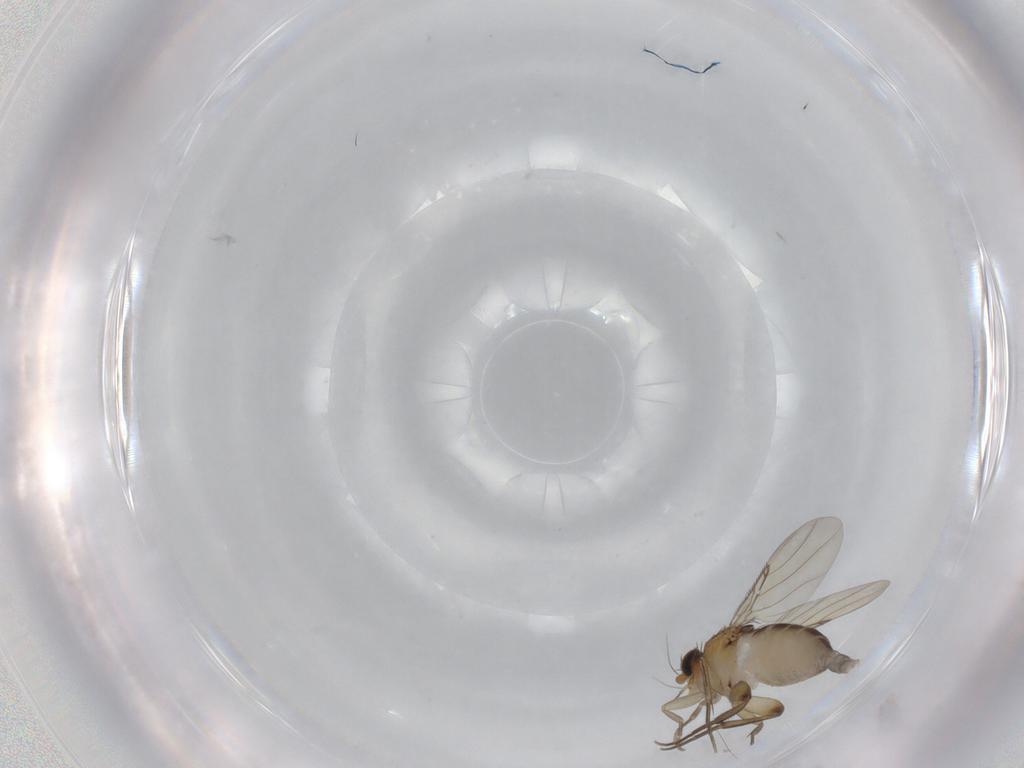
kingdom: Animalia
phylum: Arthropoda
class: Insecta
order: Diptera
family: Phoridae
